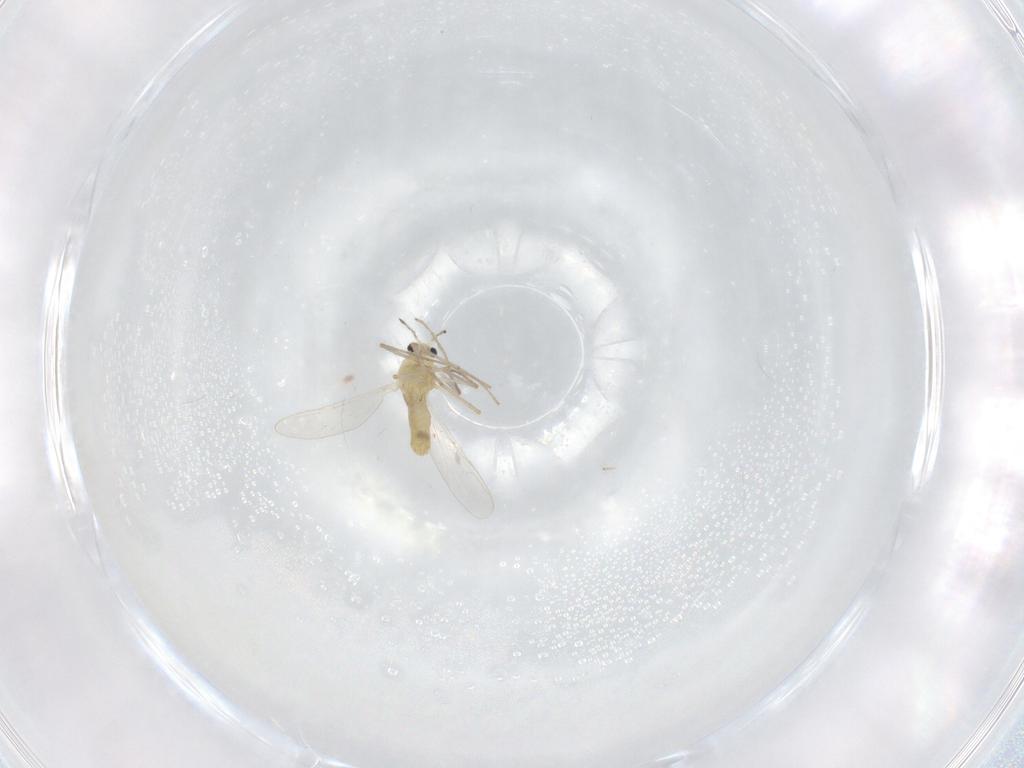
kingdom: Animalia
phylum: Arthropoda
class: Insecta
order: Diptera
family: Chironomidae
